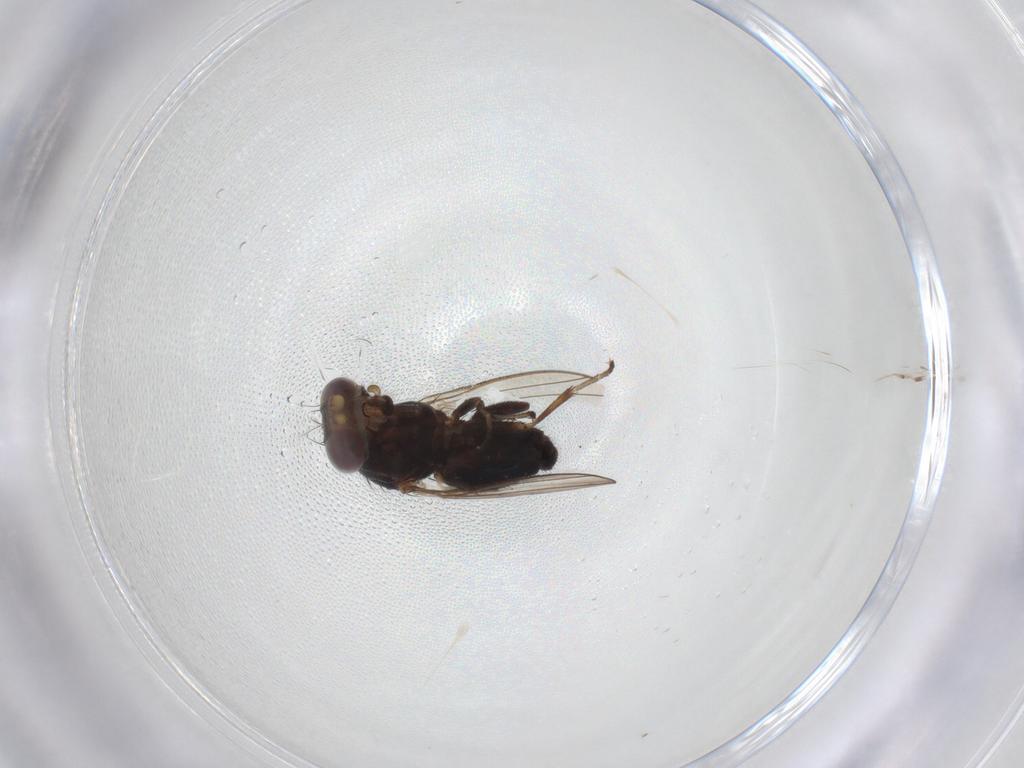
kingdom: Animalia
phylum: Arthropoda
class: Insecta
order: Diptera
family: Heleomyzidae
